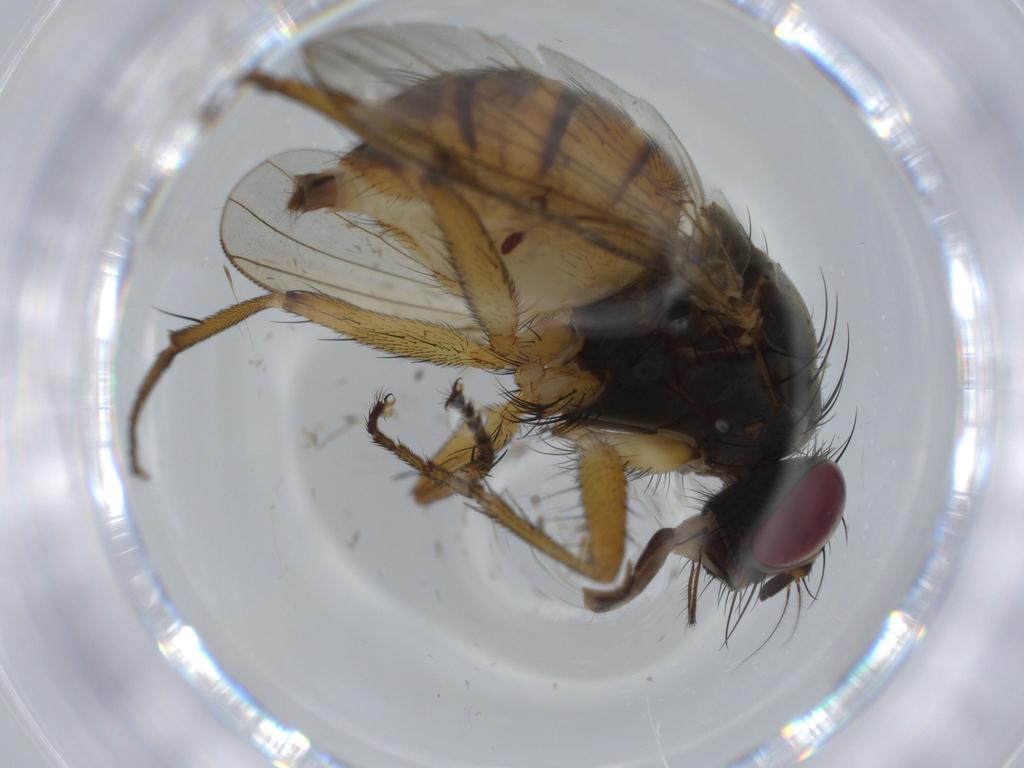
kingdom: Animalia
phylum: Arthropoda
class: Insecta
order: Diptera
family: Muscidae
